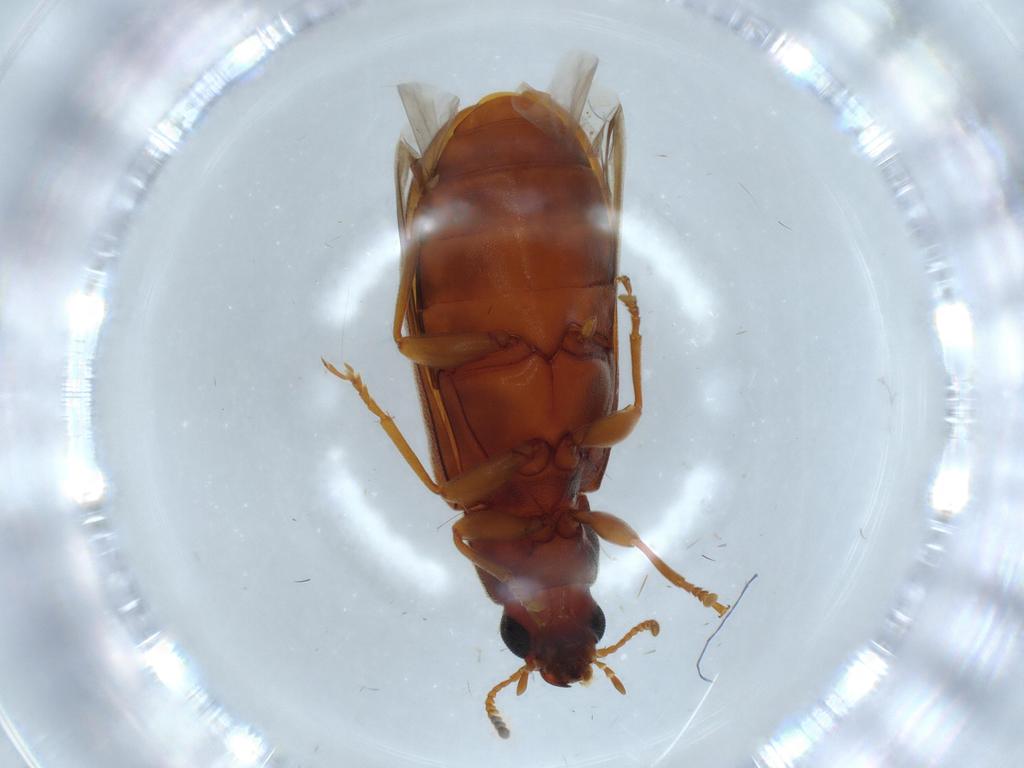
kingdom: Animalia
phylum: Arthropoda
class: Insecta
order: Coleoptera
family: Mycteridae
